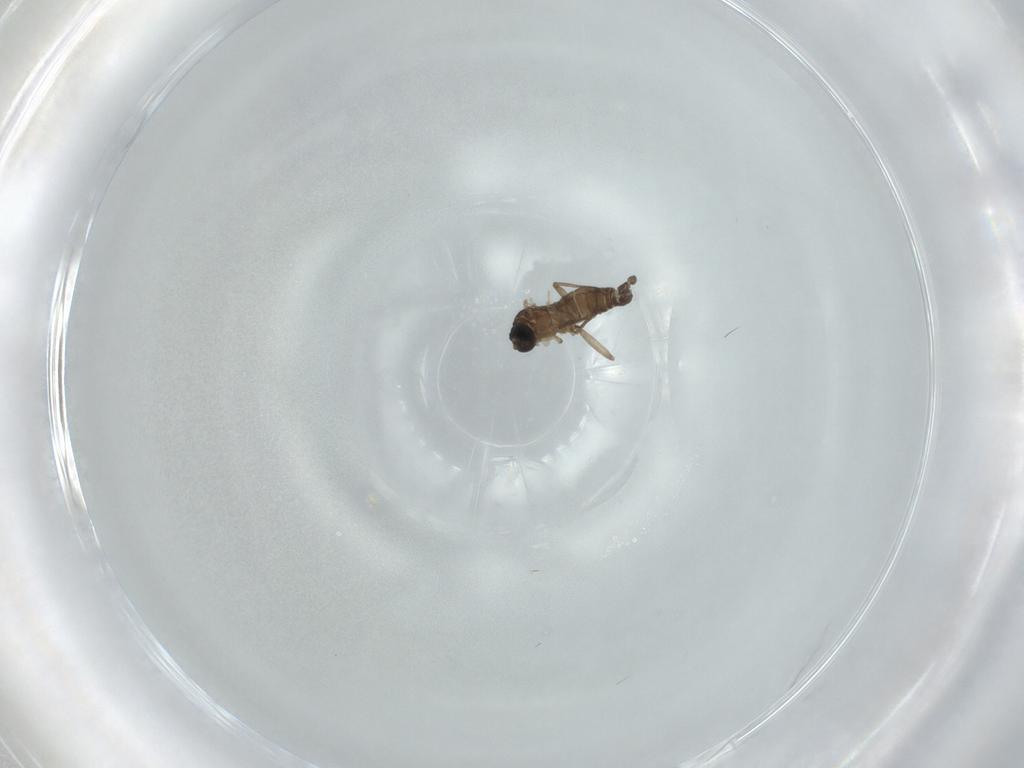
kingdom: Animalia
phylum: Arthropoda
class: Insecta
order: Diptera
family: Sciaridae
